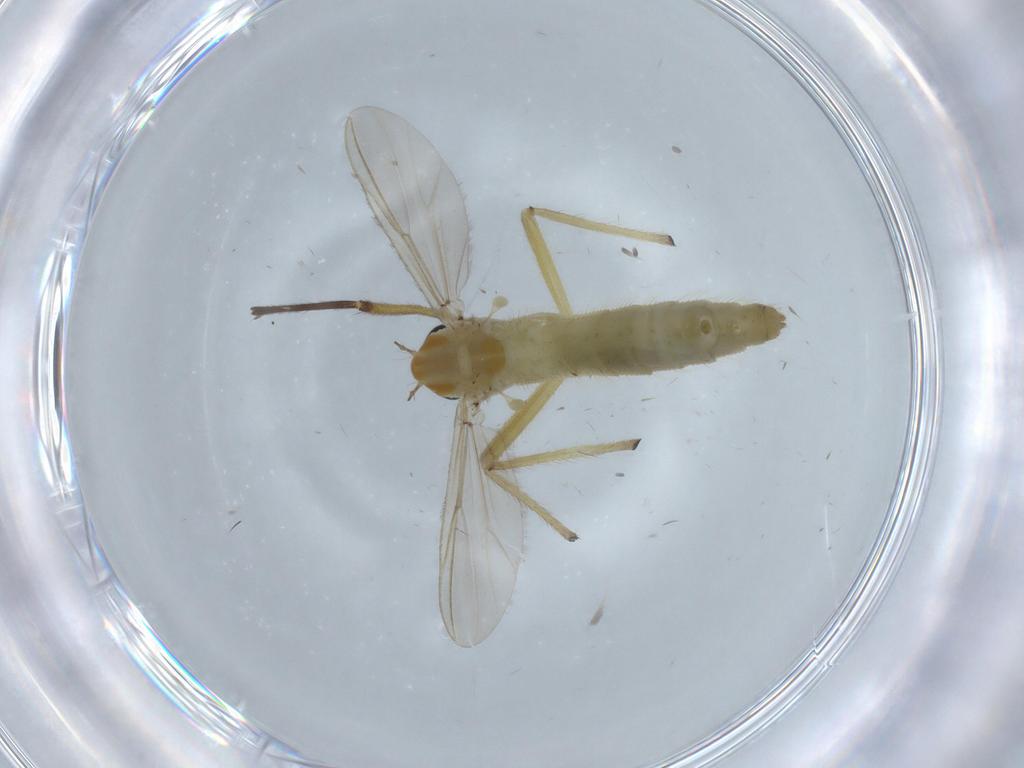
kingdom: Animalia
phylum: Arthropoda
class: Insecta
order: Diptera
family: Chironomidae
